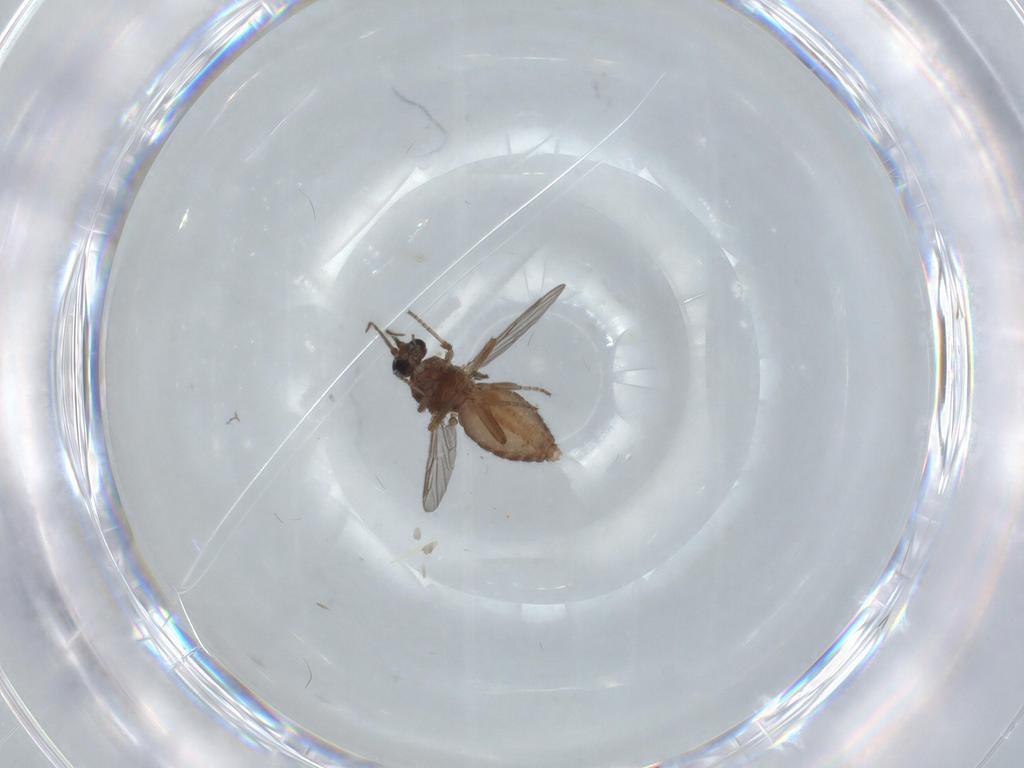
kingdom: Animalia
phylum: Arthropoda
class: Insecta
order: Diptera
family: Ceratopogonidae
